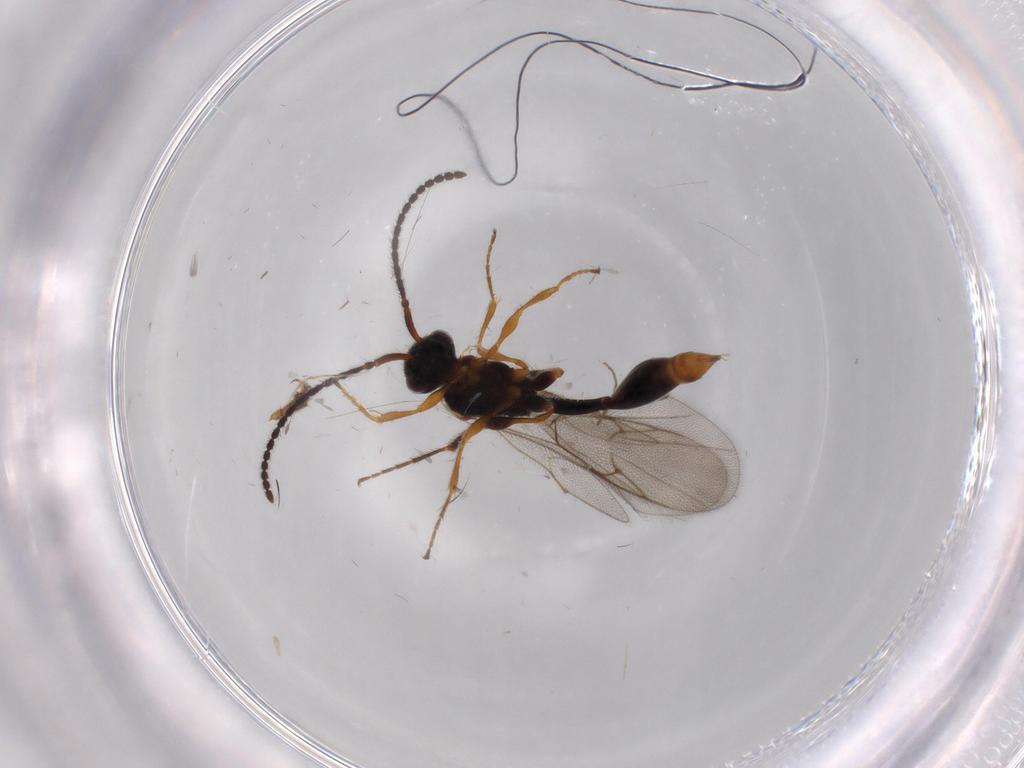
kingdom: Animalia
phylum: Arthropoda
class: Insecta
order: Hymenoptera
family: Diapriidae
